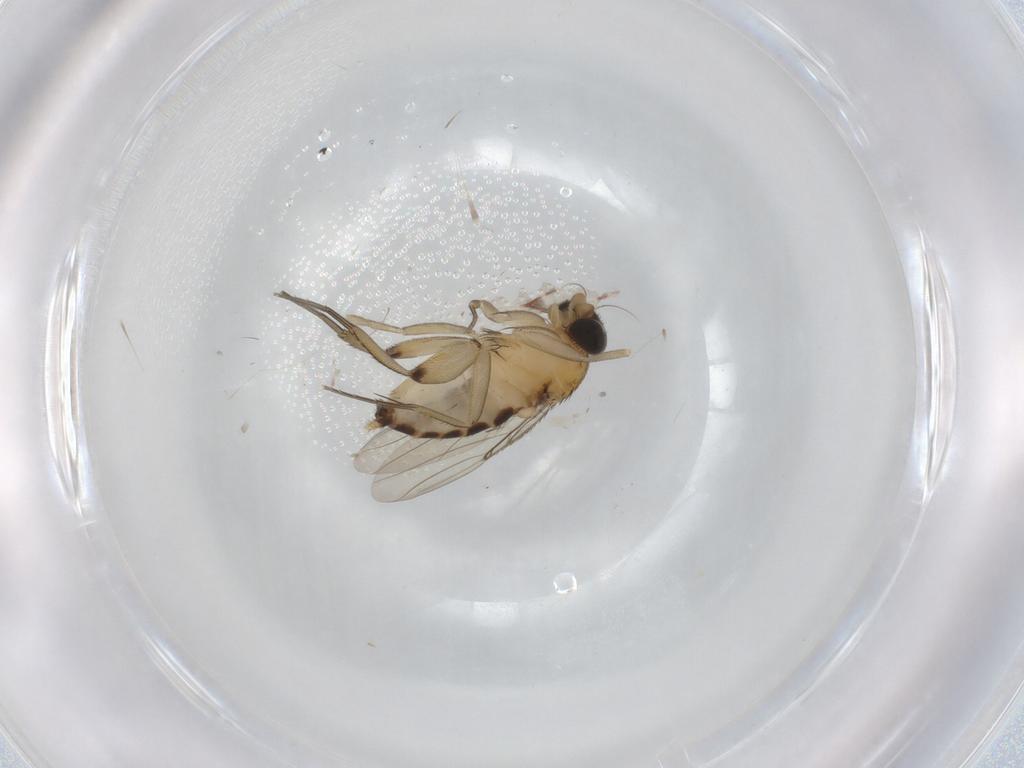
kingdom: Animalia
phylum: Arthropoda
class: Insecta
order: Diptera
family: Phoridae
